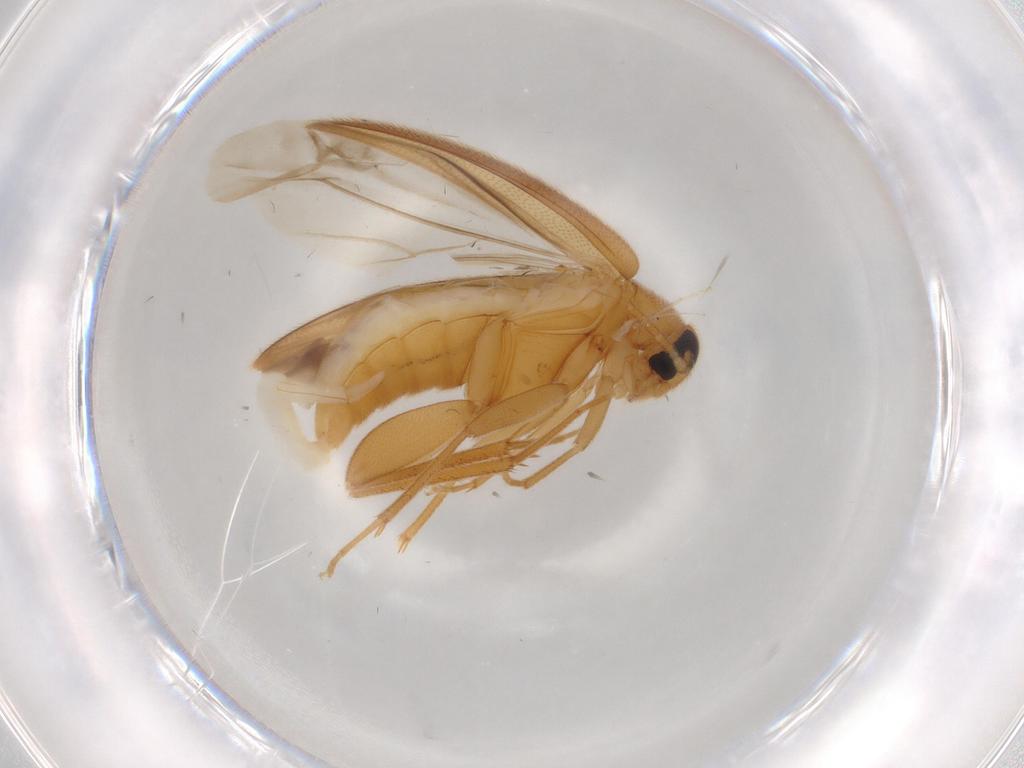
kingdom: Animalia
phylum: Arthropoda
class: Insecta
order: Coleoptera
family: Scraptiidae
